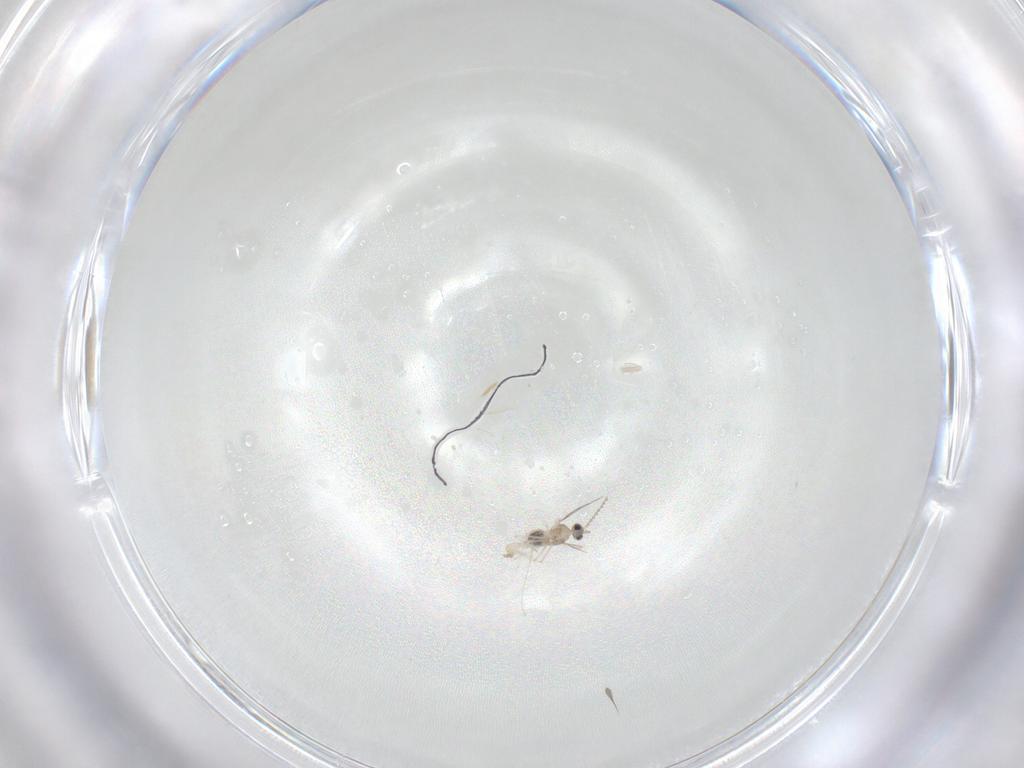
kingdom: Animalia
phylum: Arthropoda
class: Insecta
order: Diptera
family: Cecidomyiidae
